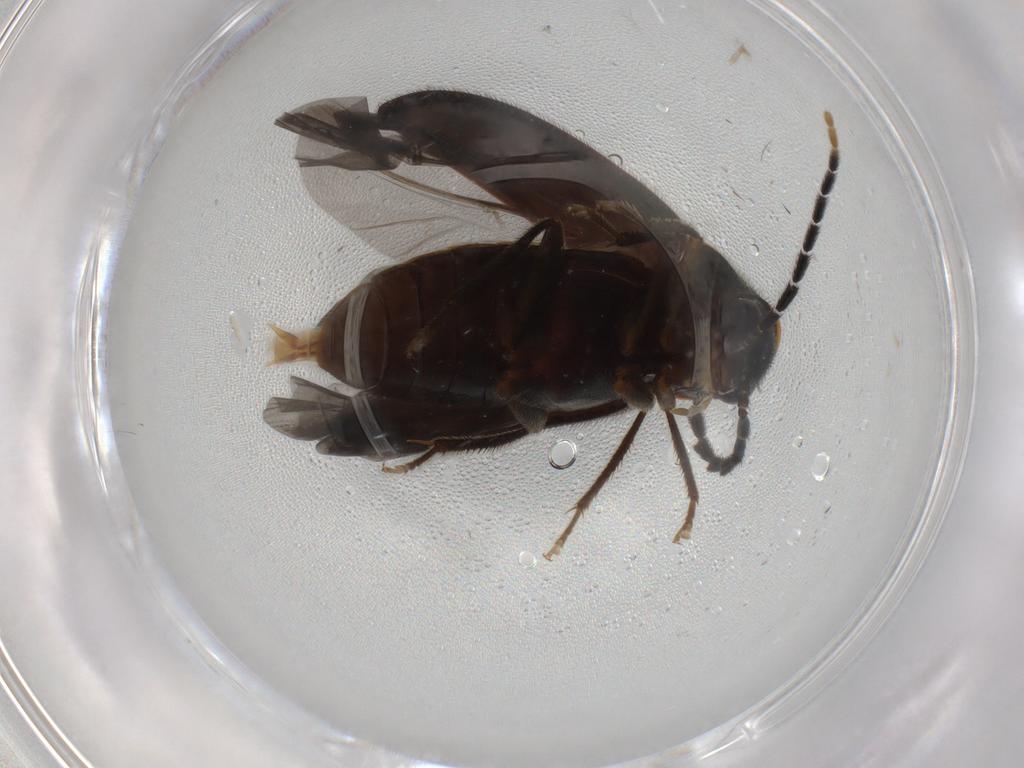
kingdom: Animalia
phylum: Arthropoda
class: Insecta
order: Coleoptera
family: Ptilodactylidae
